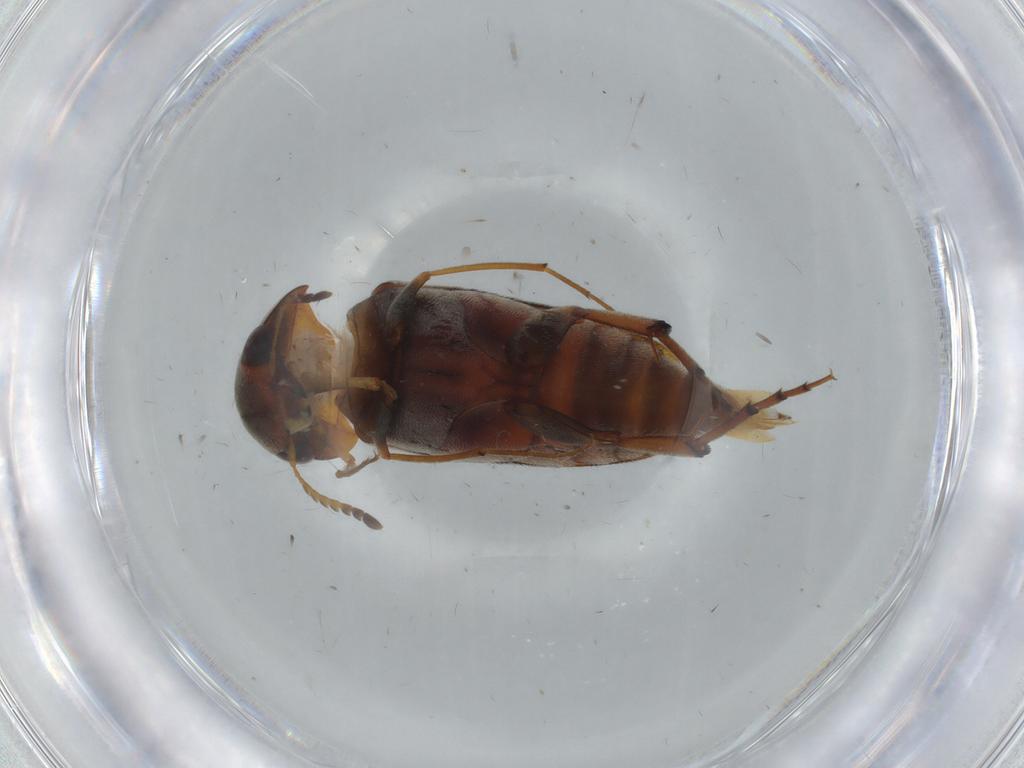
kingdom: Animalia
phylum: Arthropoda
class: Insecta
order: Coleoptera
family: Mordellidae
